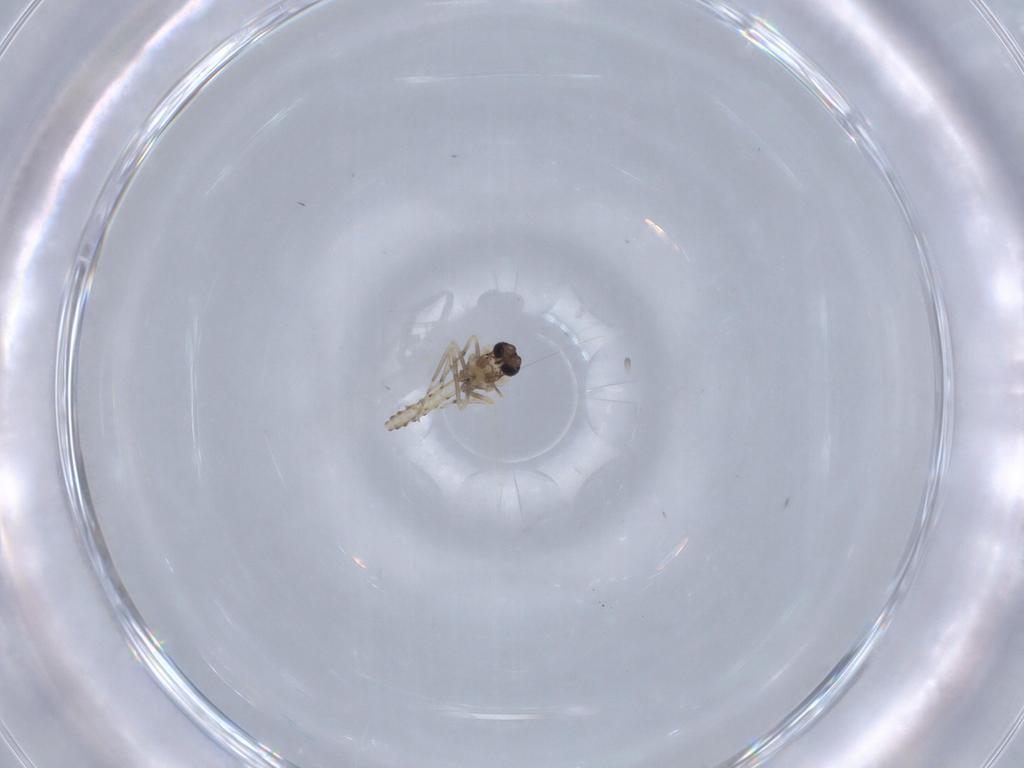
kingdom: Animalia
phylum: Arthropoda
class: Insecta
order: Diptera
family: Ceratopogonidae
